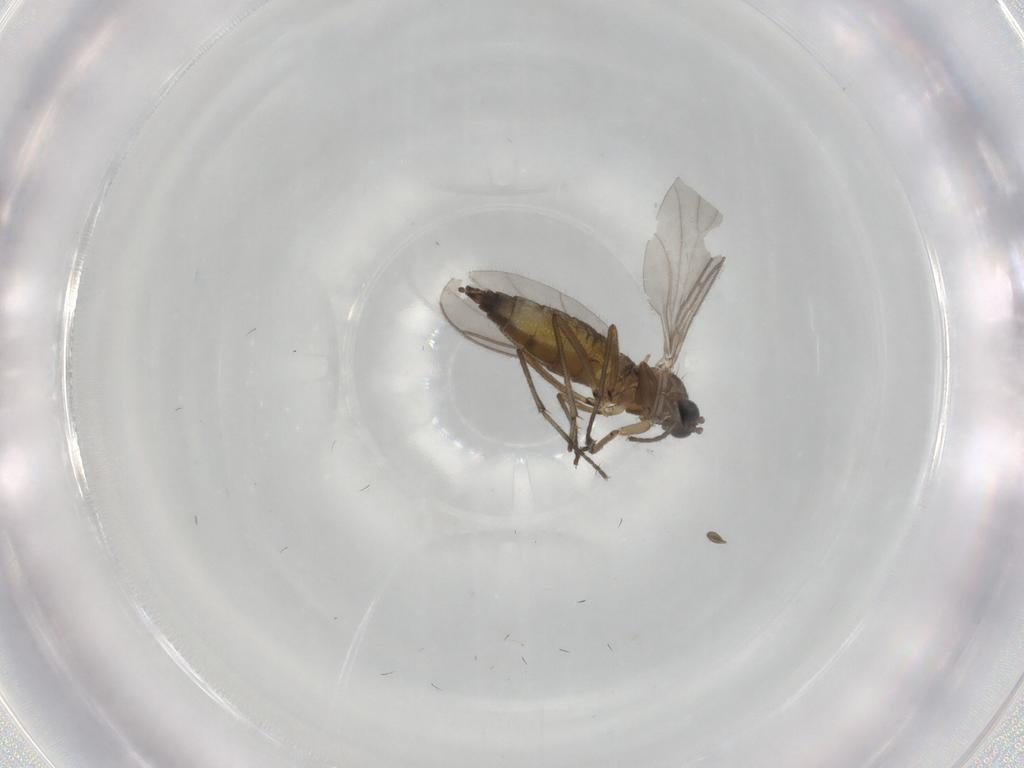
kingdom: Animalia
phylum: Arthropoda
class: Insecta
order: Diptera
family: Sciaridae
